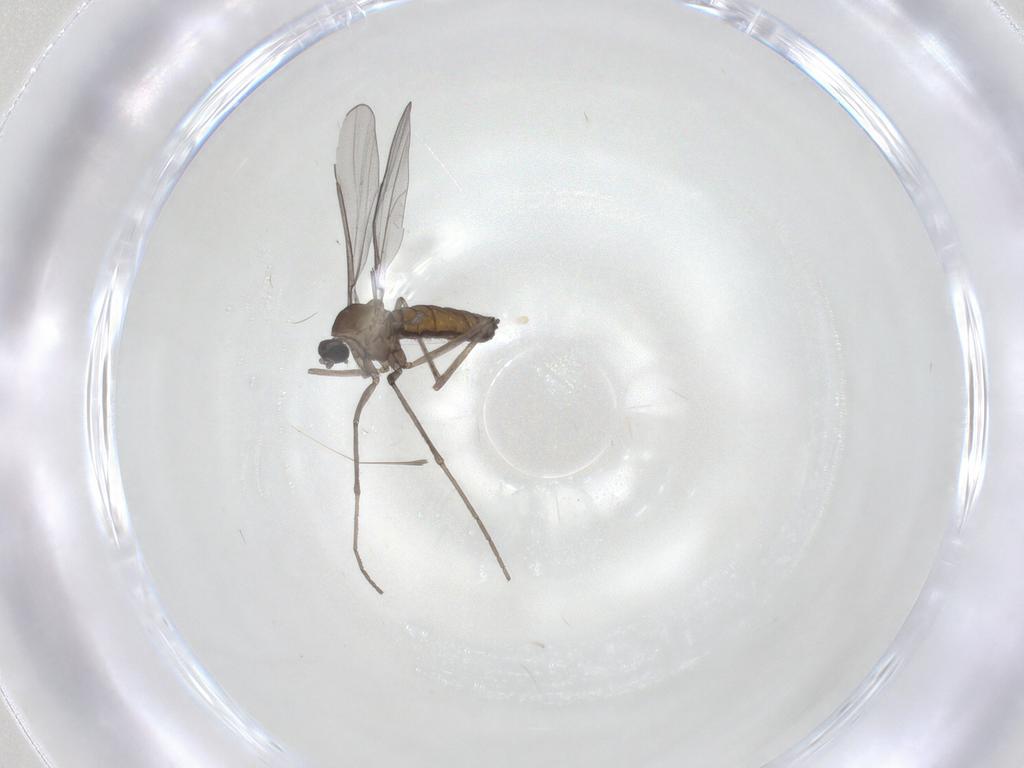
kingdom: Animalia
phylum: Arthropoda
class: Insecta
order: Diptera
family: Cecidomyiidae
